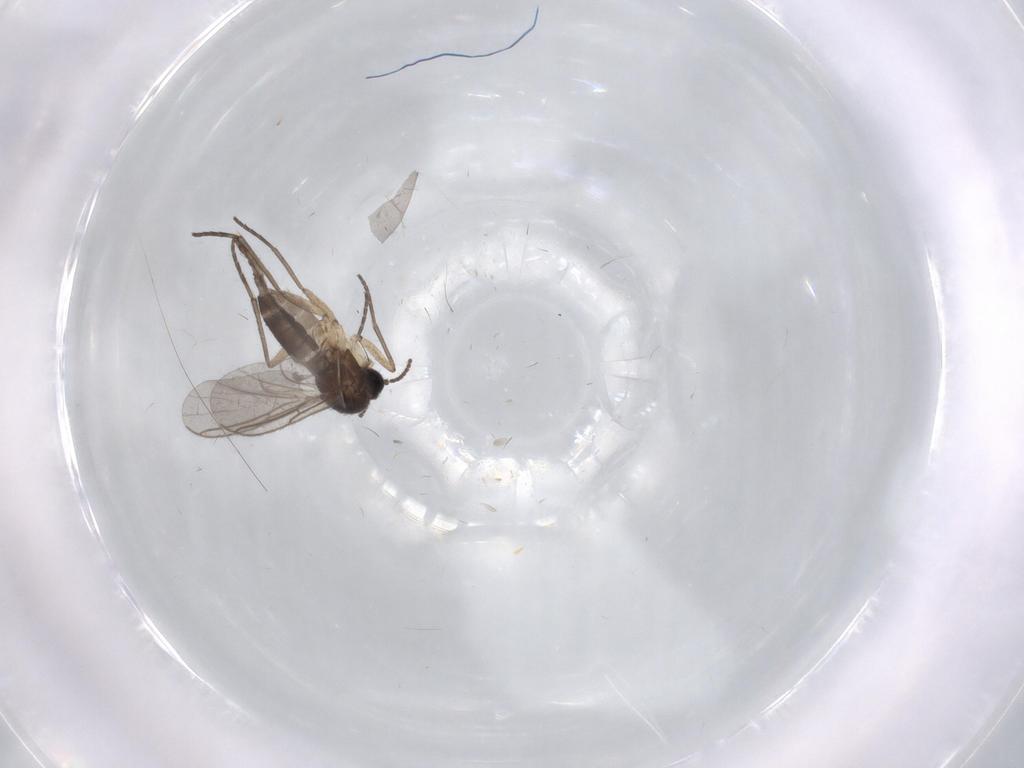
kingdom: Animalia
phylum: Arthropoda
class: Insecta
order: Diptera
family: Sciaridae
